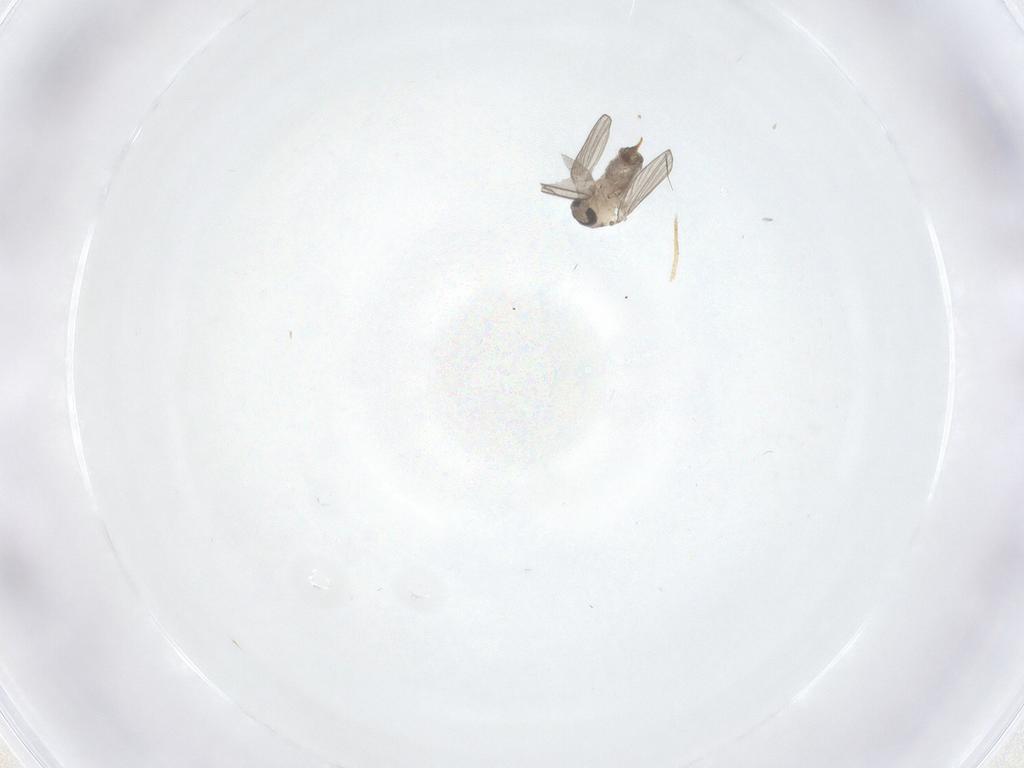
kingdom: Animalia
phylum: Arthropoda
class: Insecta
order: Diptera
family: Psychodidae
